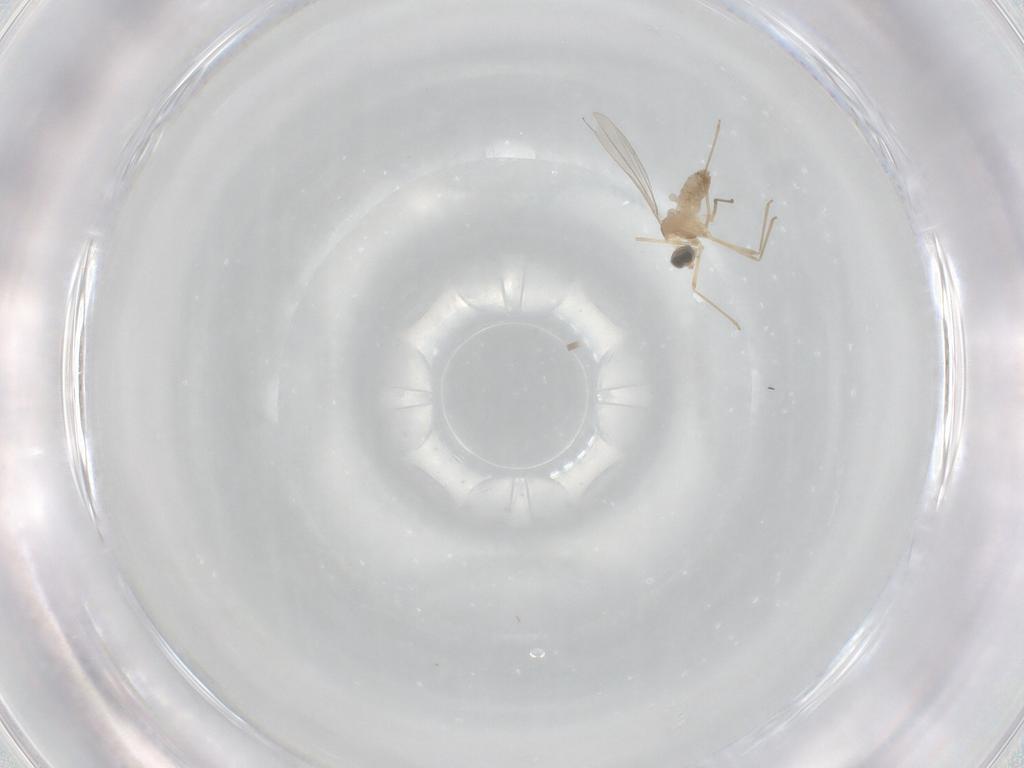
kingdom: Animalia
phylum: Arthropoda
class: Insecta
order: Diptera
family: Cecidomyiidae
